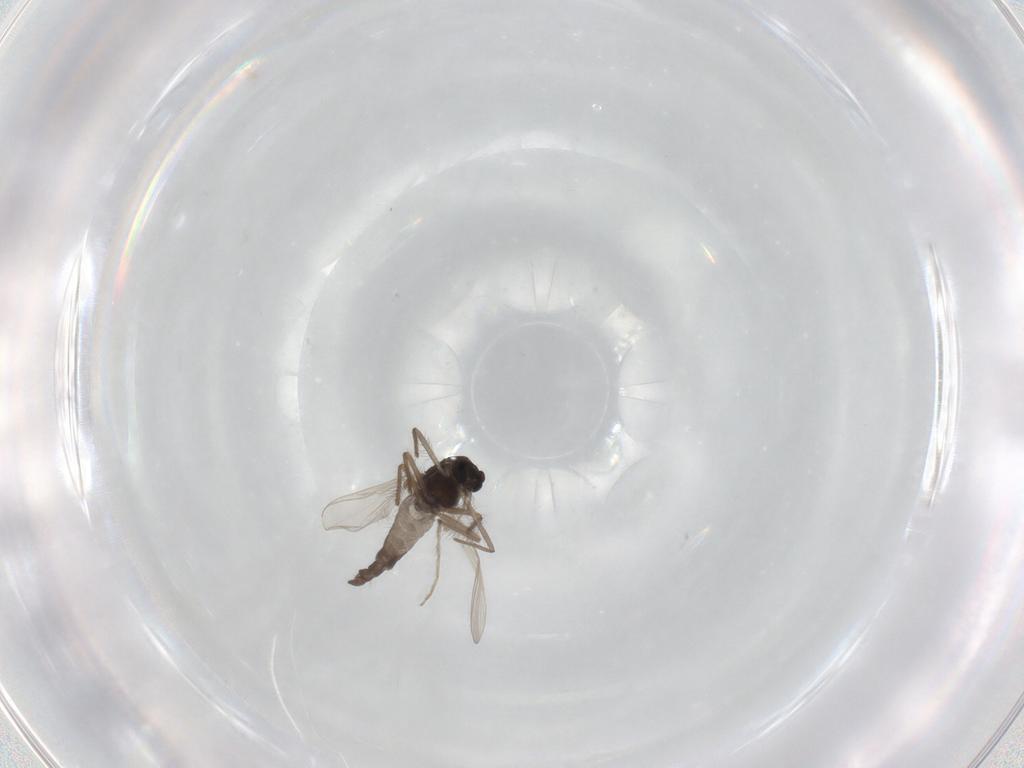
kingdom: Animalia
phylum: Arthropoda
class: Insecta
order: Diptera
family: Chironomidae
